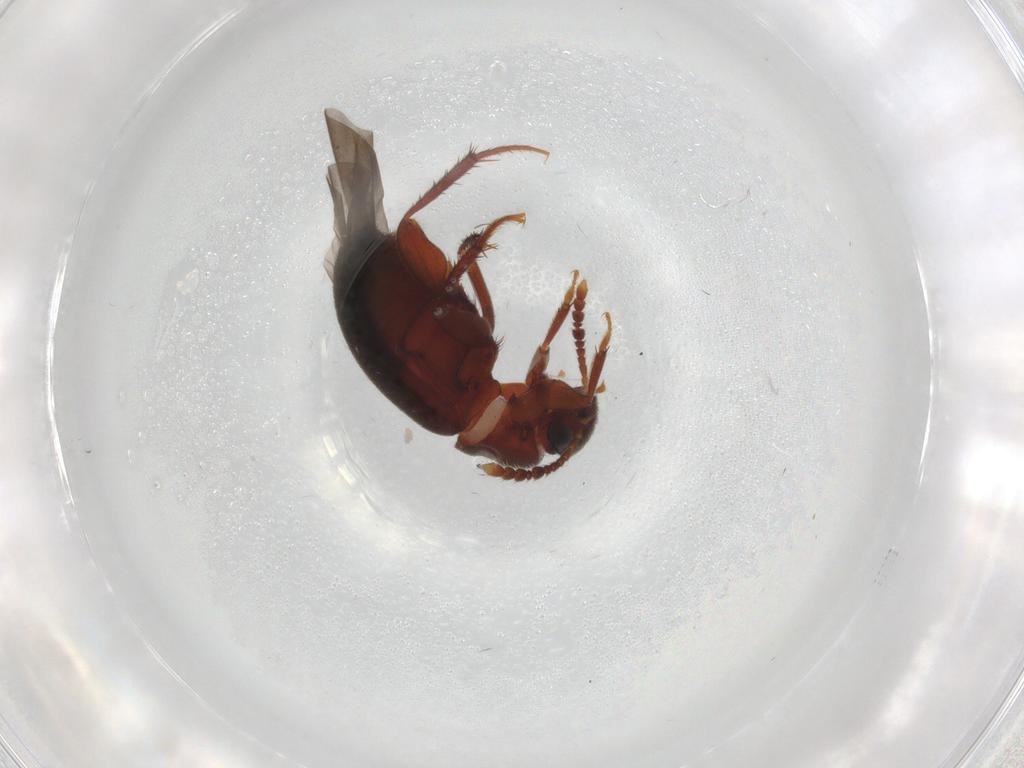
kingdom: Animalia
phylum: Arthropoda
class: Insecta
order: Coleoptera
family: Leiodidae
